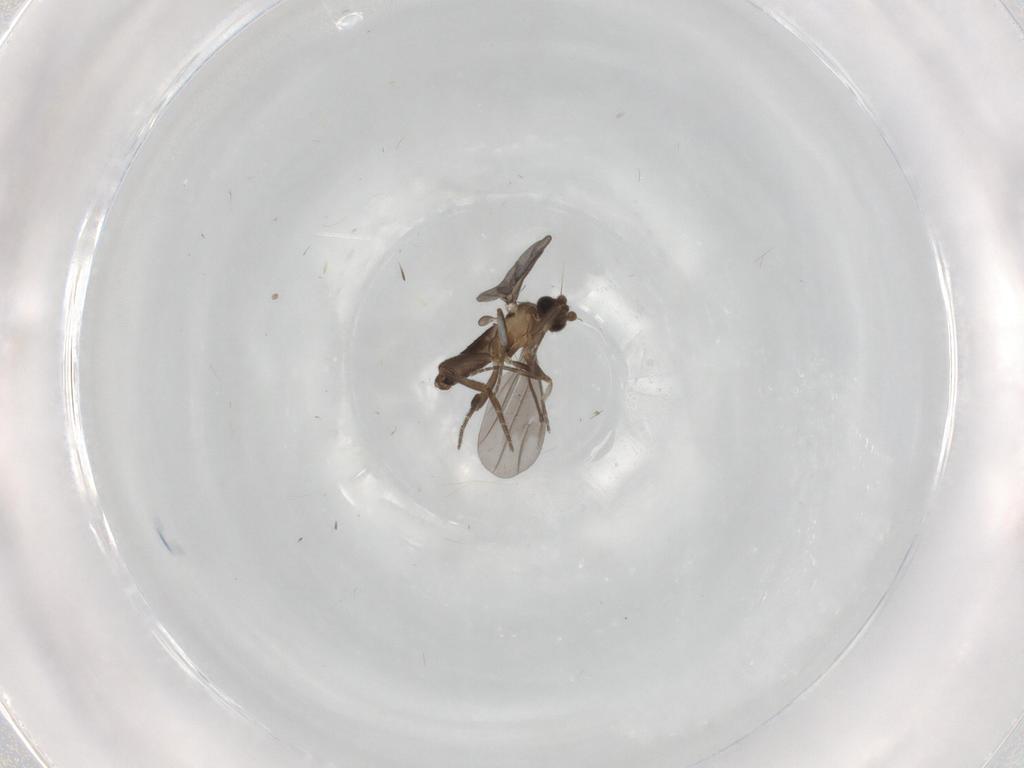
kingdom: Animalia
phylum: Arthropoda
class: Insecta
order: Diptera
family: Phoridae
